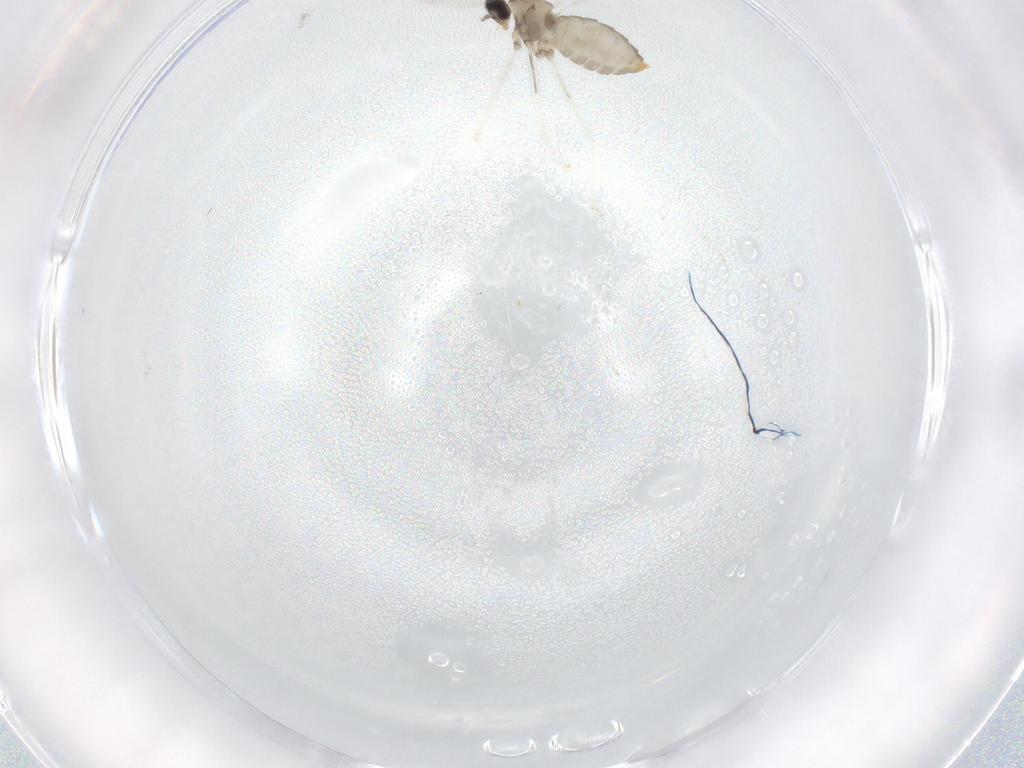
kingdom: Animalia
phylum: Arthropoda
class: Insecta
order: Diptera
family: Cecidomyiidae
